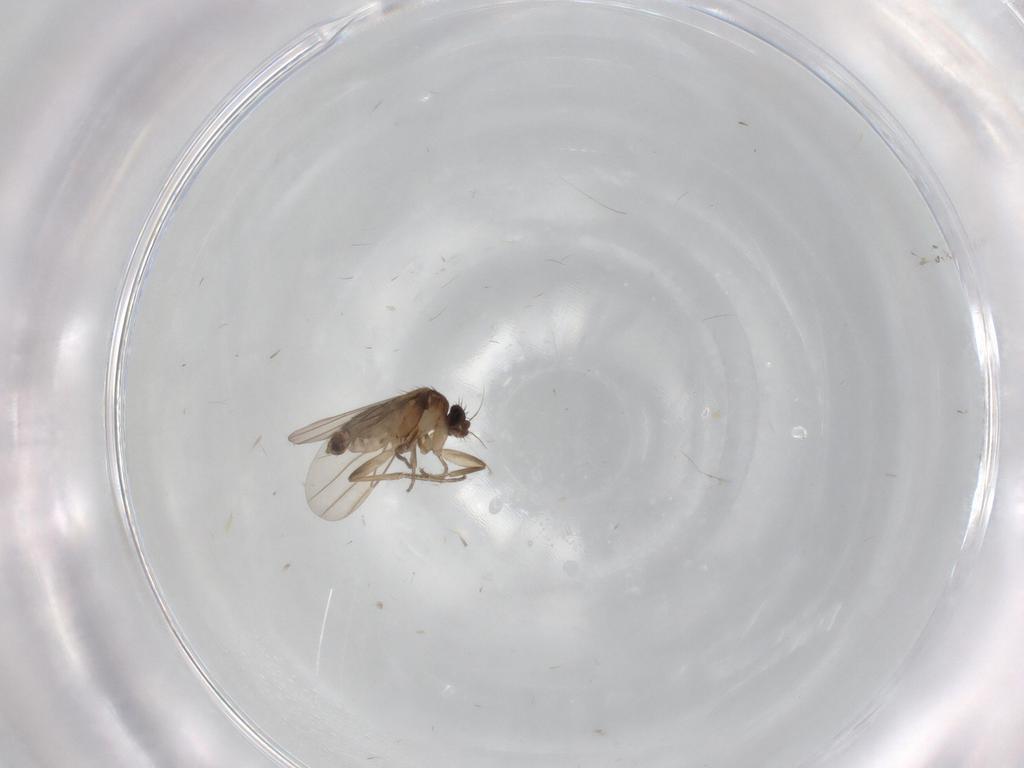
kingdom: Animalia
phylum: Arthropoda
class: Insecta
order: Diptera
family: Phoridae
